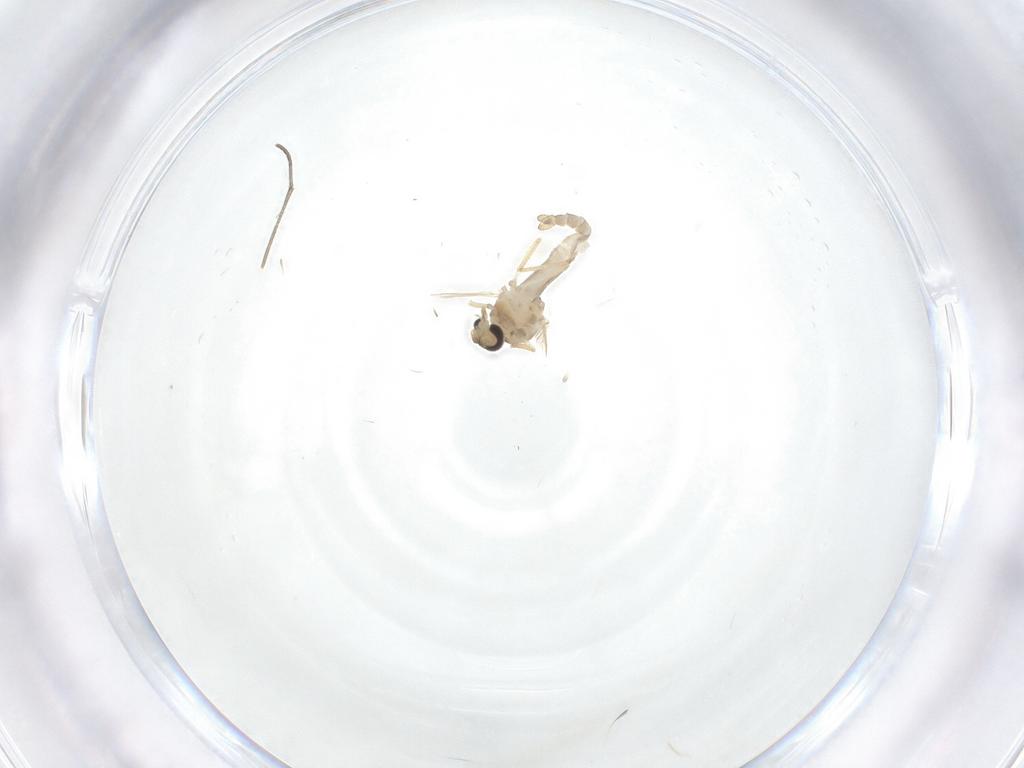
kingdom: Animalia
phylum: Arthropoda
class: Insecta
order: Diptera
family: Ceratopogonidae
